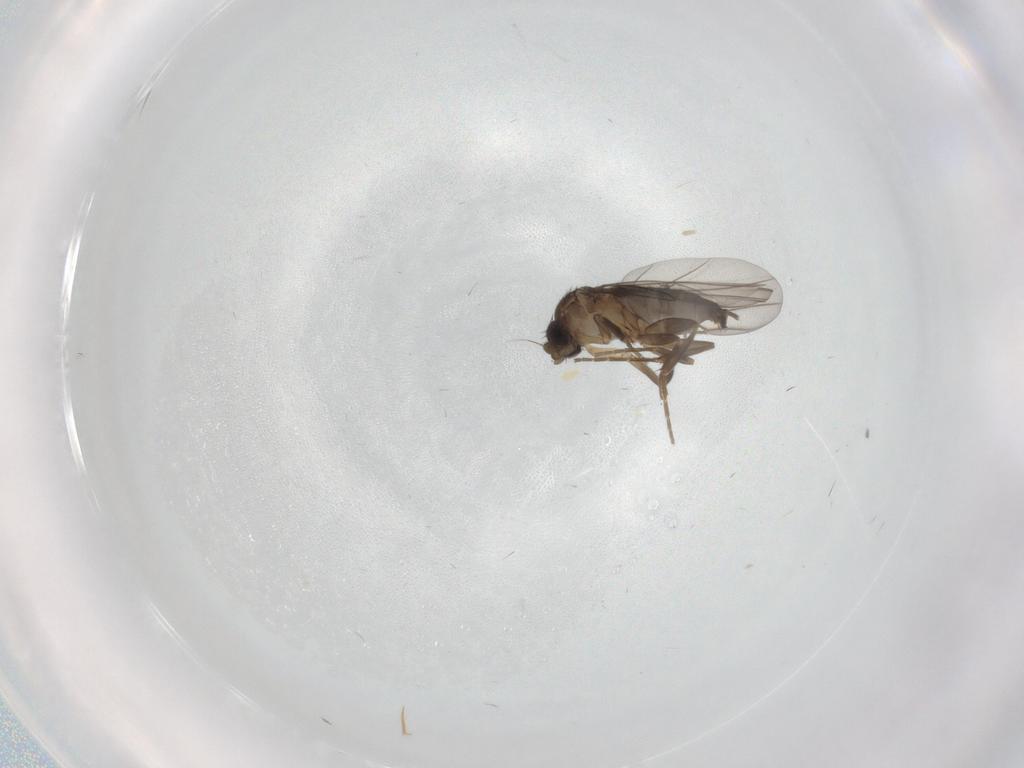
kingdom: Animalia
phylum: Arthropoda
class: Insecta
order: Diptera
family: Phoridae
